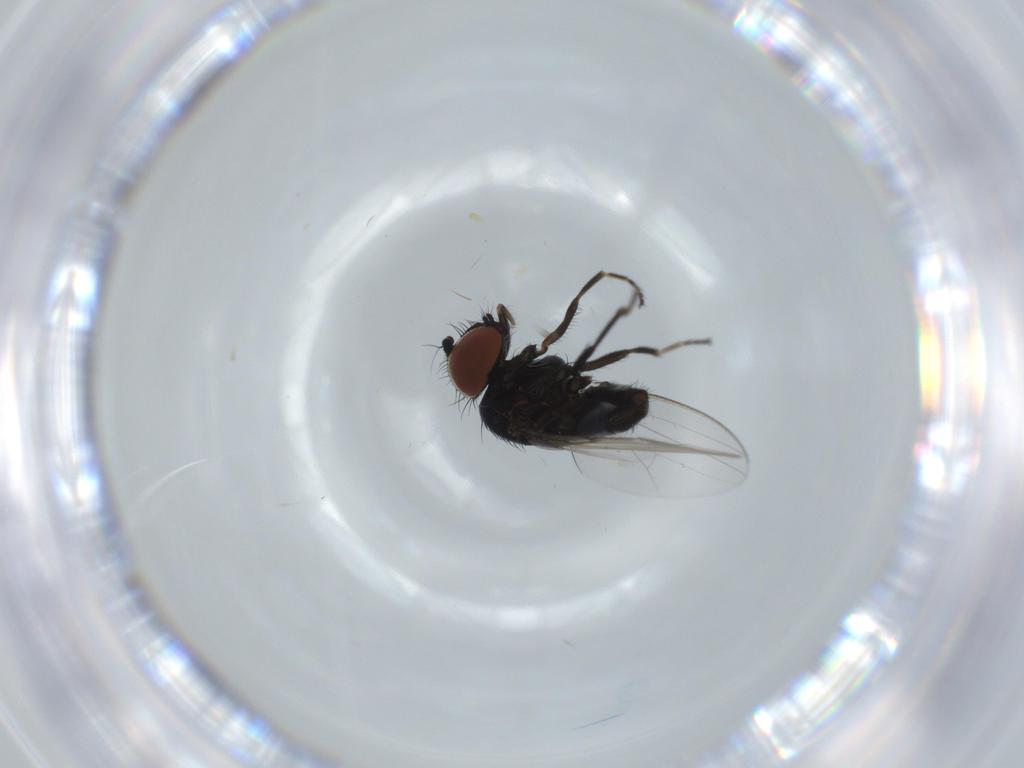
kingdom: Animalia
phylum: Arthropoda
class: Insecta
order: Diptera
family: Milichiidae
